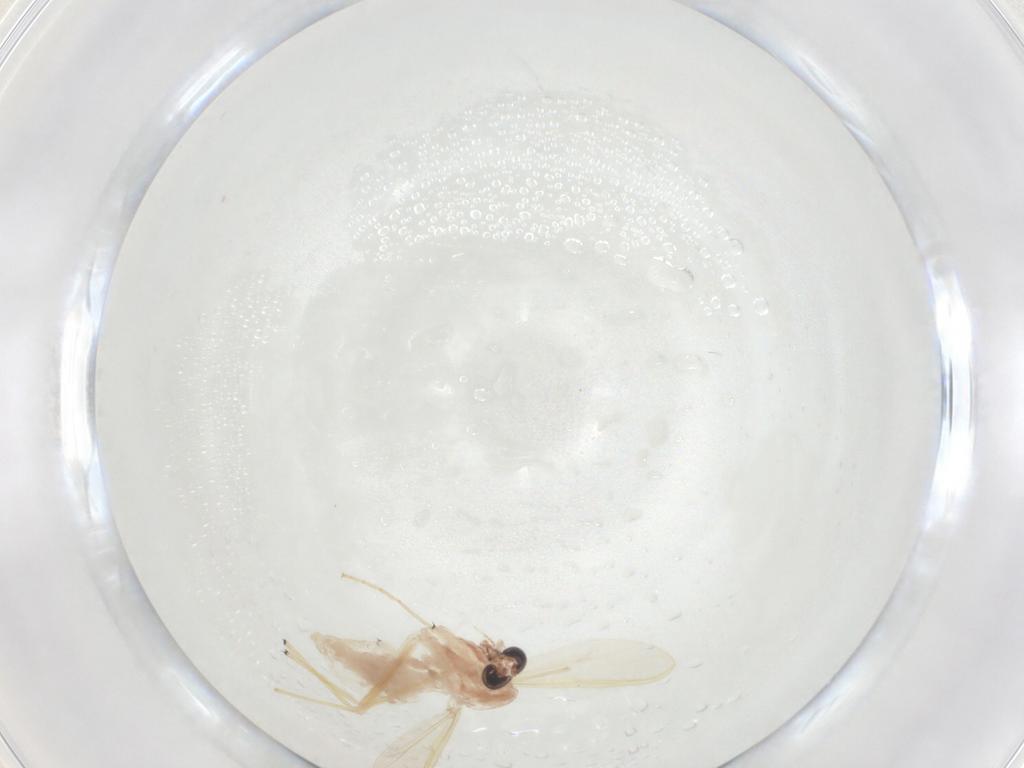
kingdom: Animalia
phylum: Arthropoda
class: Insecta
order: Diptera
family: Chironomidae
